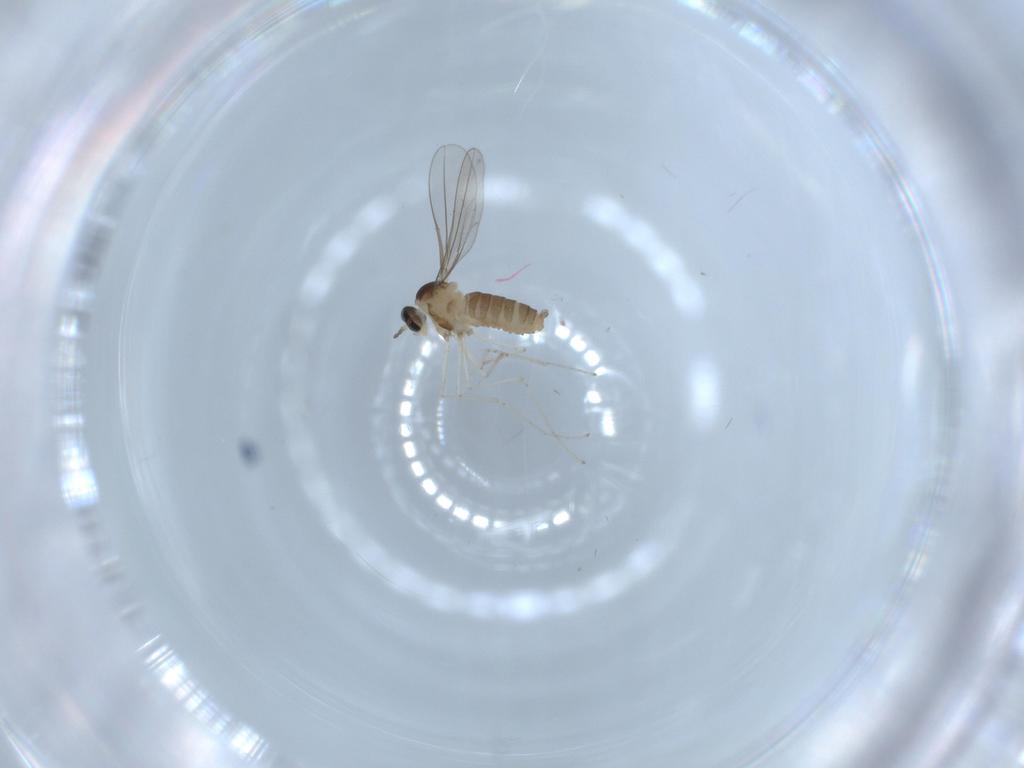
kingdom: Animalia
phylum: Arthropoda
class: Insecta
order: Diptera
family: Cecidomyiidae
